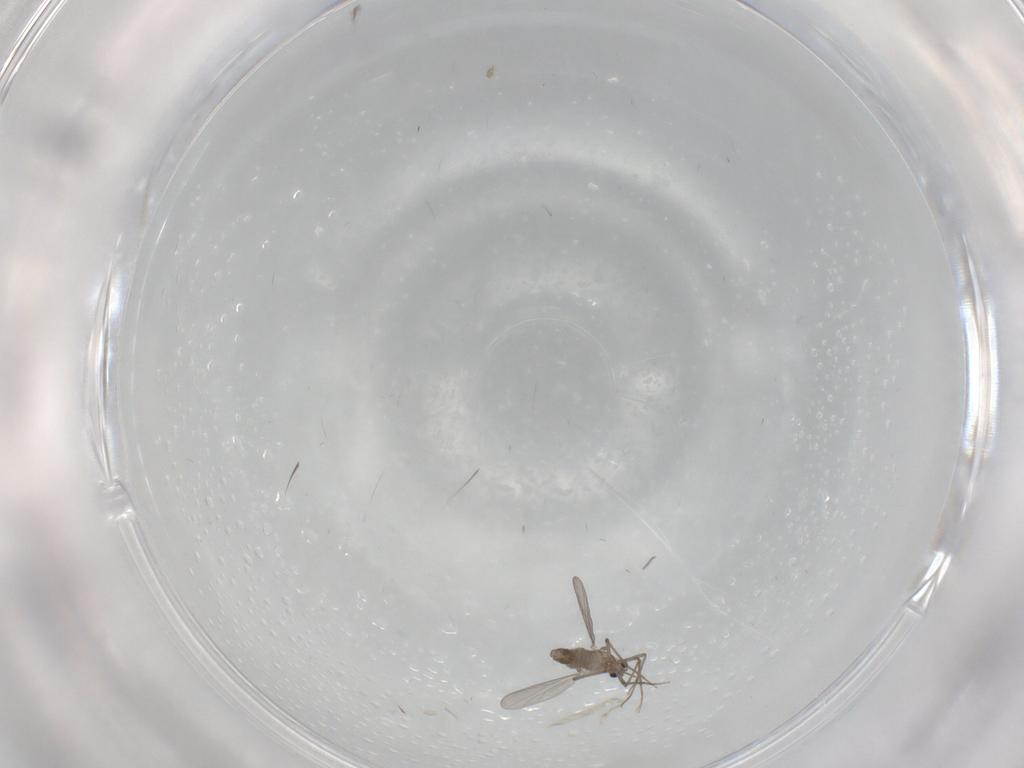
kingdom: Animalia
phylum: Arthropoda
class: Insecta
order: Diptera
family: Chironomidae
